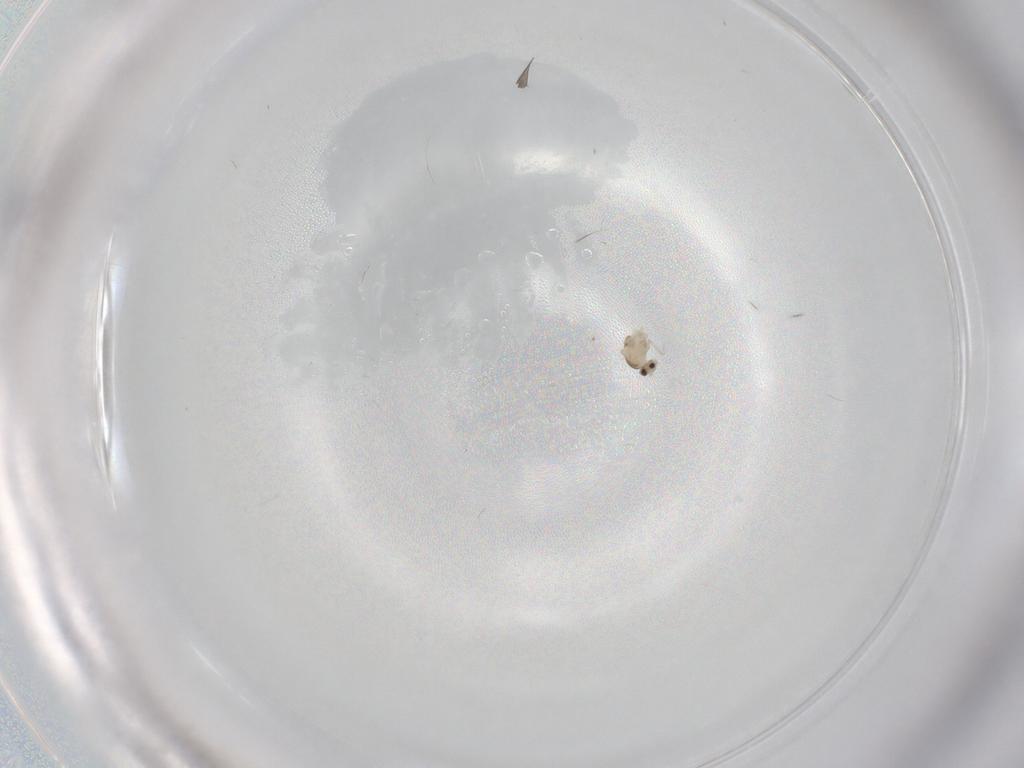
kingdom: Animalia
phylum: Arthropoda
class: Insecta
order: Diptera
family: Cecidomyiidae
